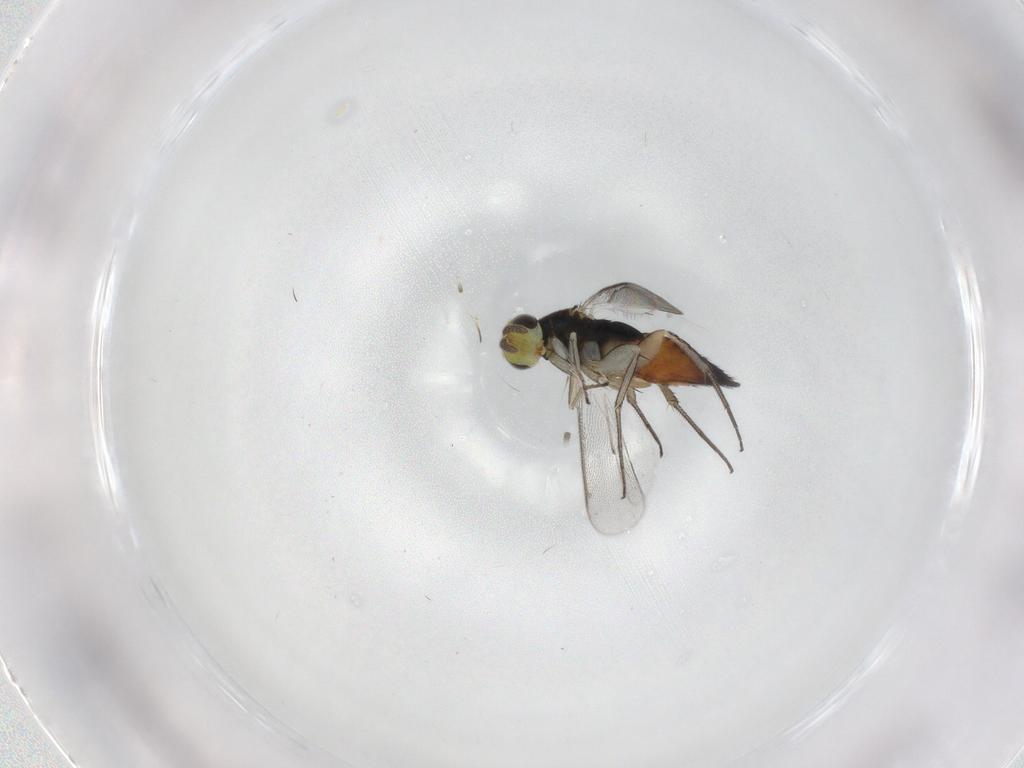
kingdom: Animalia
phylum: Arthropoda
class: Insecta
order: Hymenoptera
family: Eulophidae
